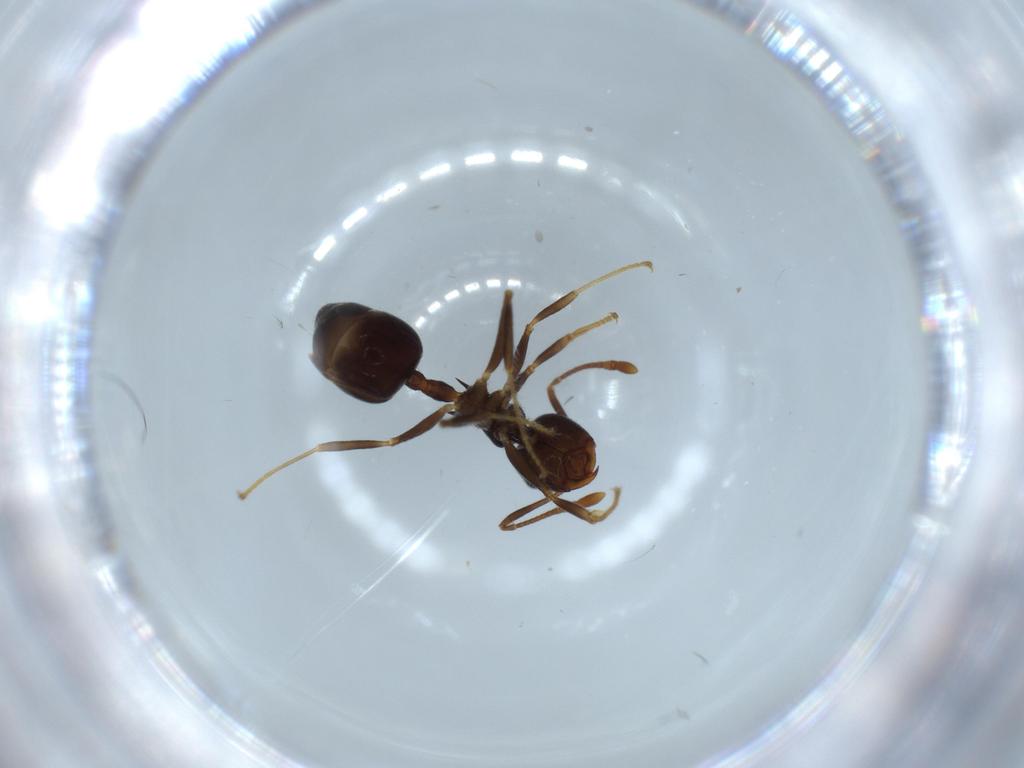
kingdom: Animalia
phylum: Arthropoda
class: Insecta
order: Hymenoptera
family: Formicidae
